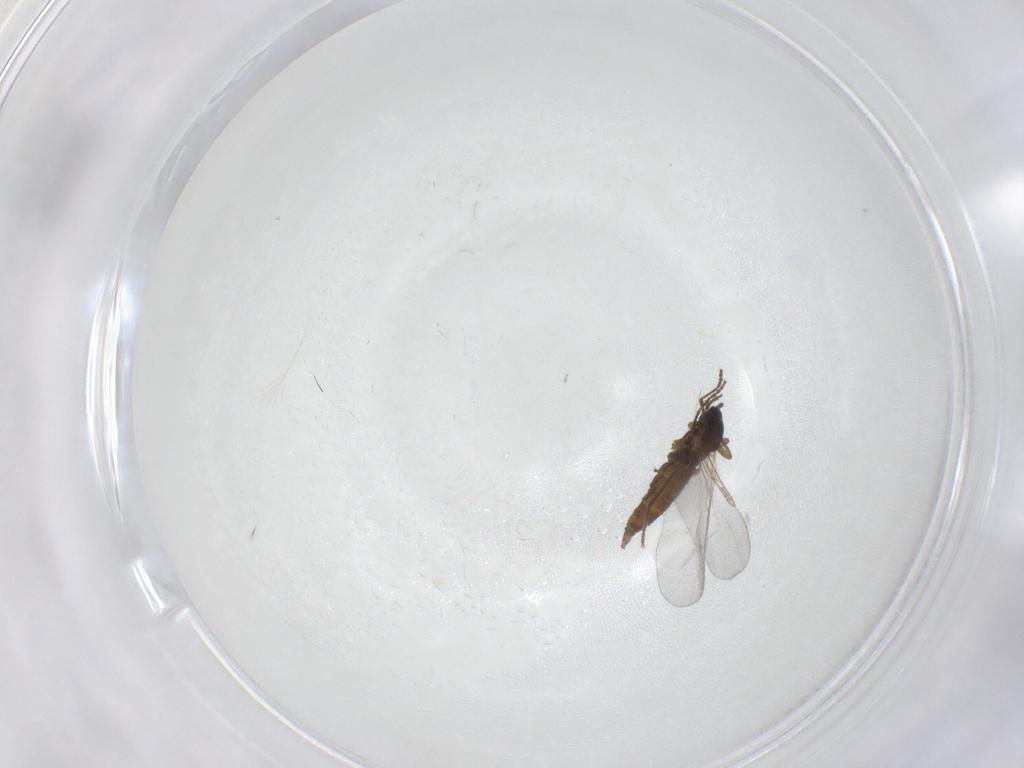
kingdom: Animalia
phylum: Arthropoda
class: Insecta
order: Diptera
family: Cecidomyiidae
